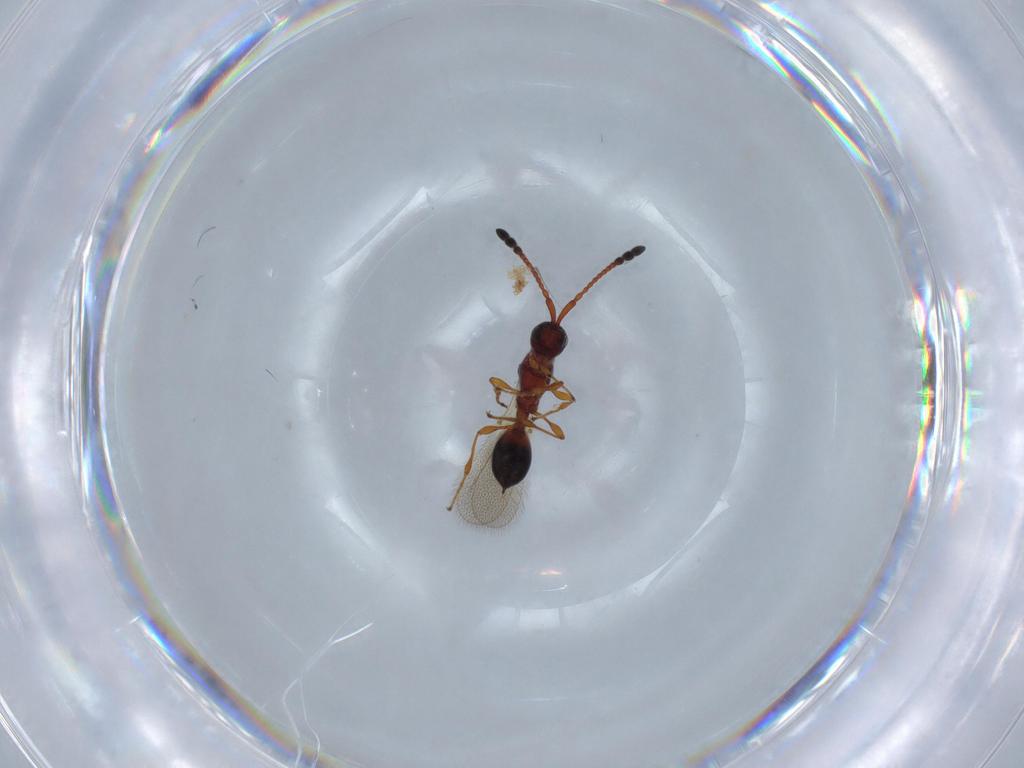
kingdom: Animalia
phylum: Arthropoda
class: Insecta
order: Hymenoptera
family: Diapriidae
